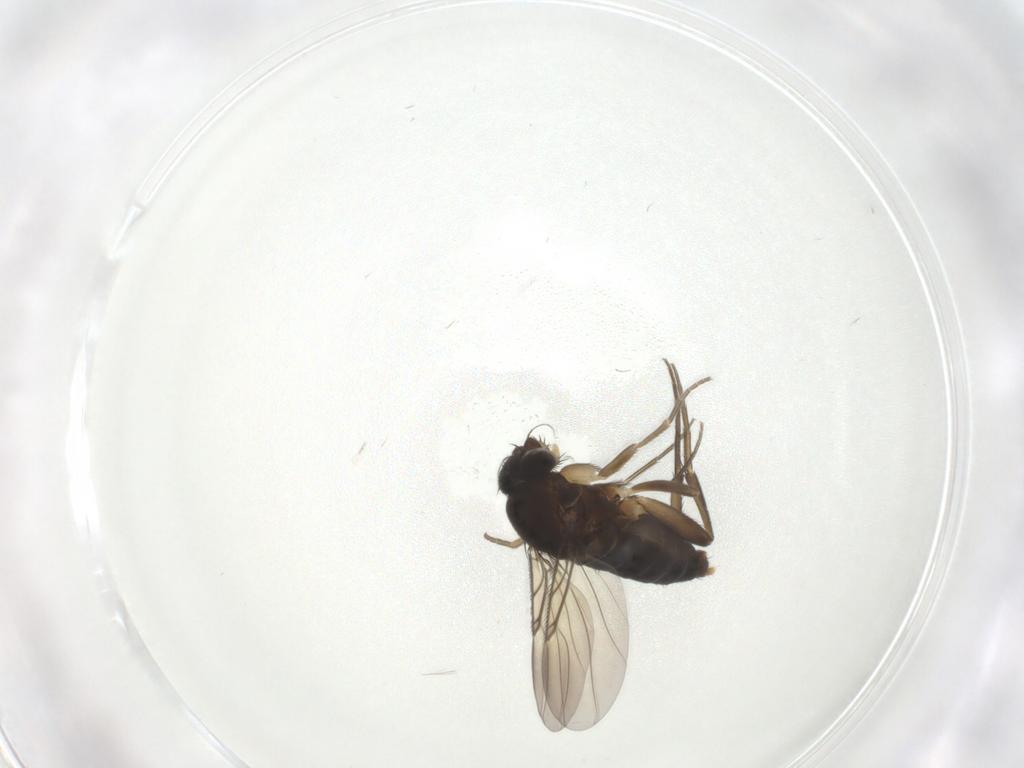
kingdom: Animalia
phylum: Arthropoda
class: Insecta
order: Diptera
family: Phoridae
